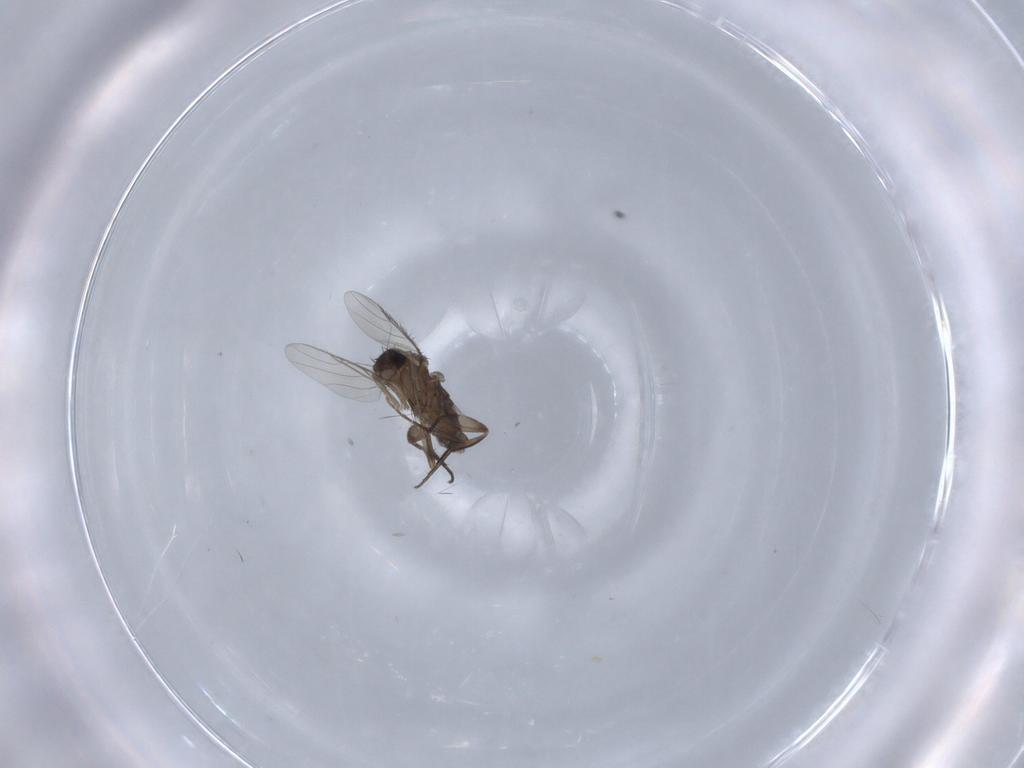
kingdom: Animalia
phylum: Arthropoda
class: Insecta
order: Diptera
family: Phoridae
